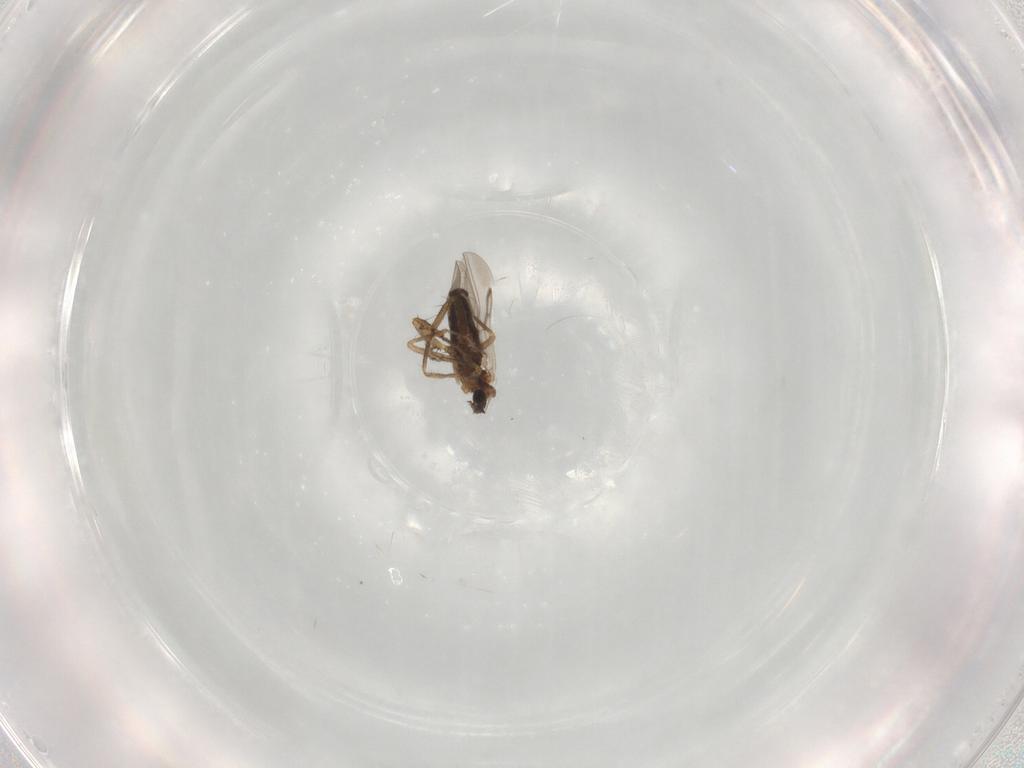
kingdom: Animalia
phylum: Arthropoda
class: Insecta
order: Diptera
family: Ceratopogonidae
